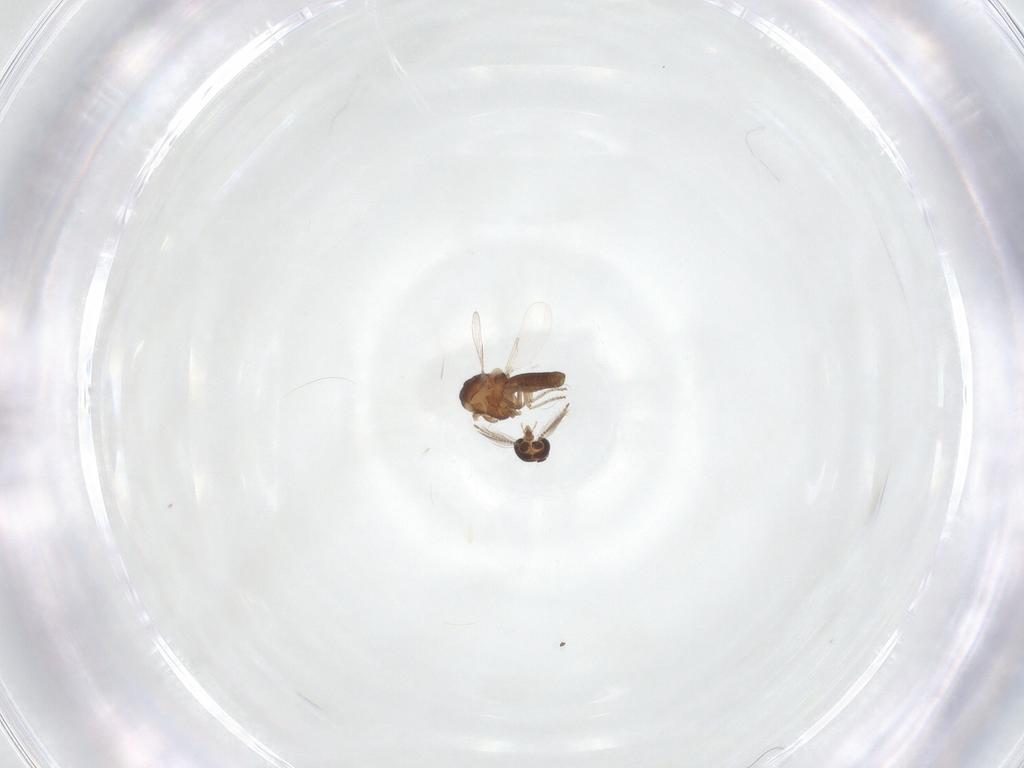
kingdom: Animalia
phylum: Arthropoda
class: Insecta
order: Diptera
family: Ceratopogonidae
